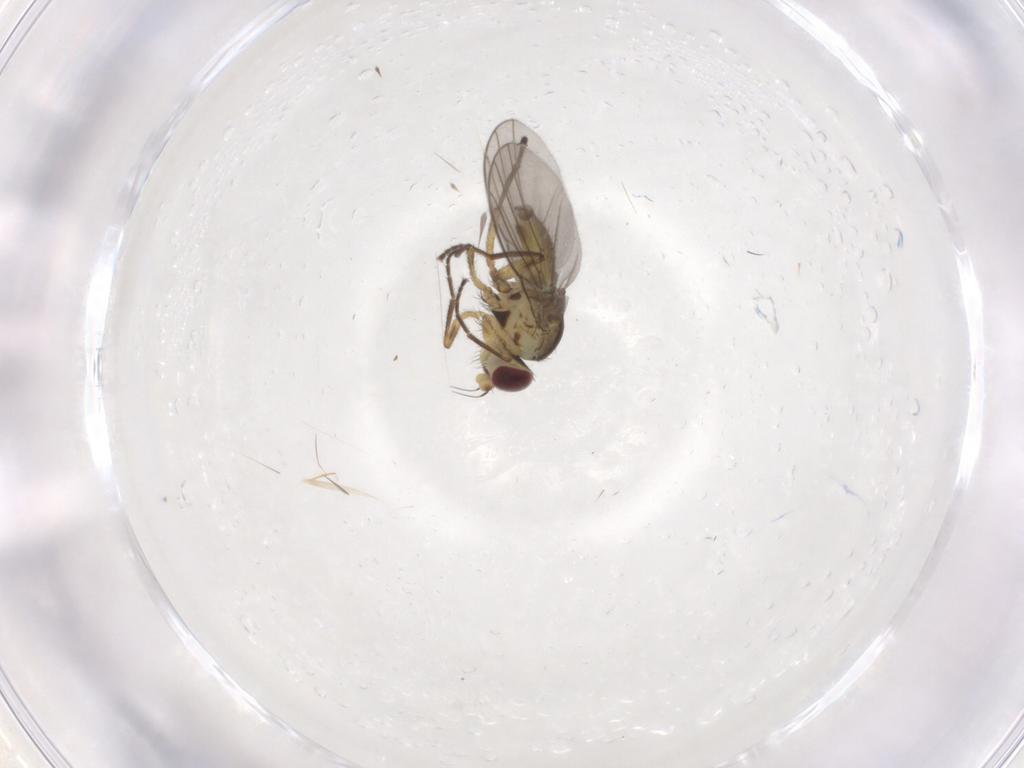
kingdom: Animalia
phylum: Arthropoda
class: Insecta
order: Diptera
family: Agromyzidae
